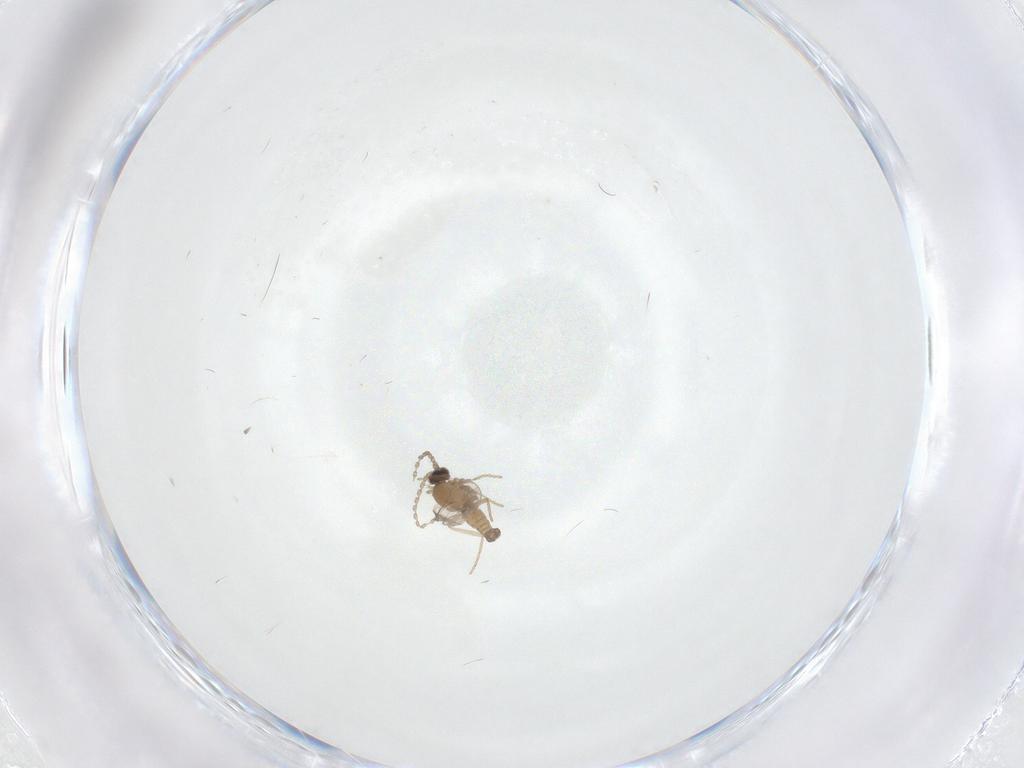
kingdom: Animalia
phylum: Arthropoda
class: Insecta
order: Diptera
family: Cecidomyiidae
